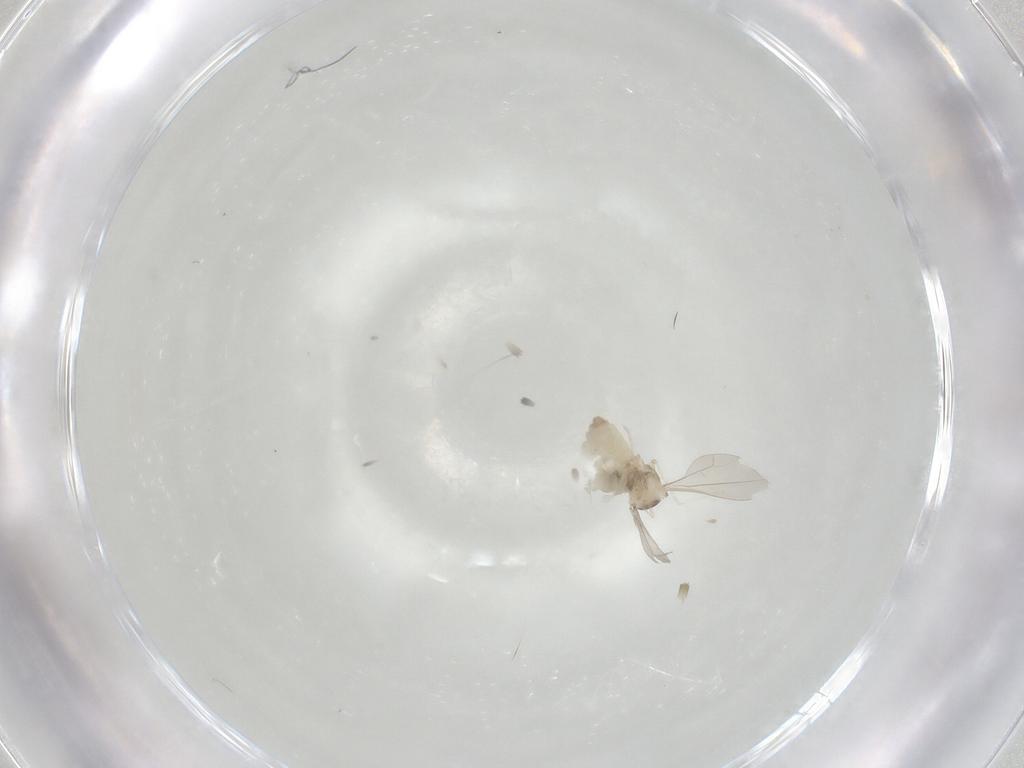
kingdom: Animalia
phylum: Arthropoda
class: Insecta
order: Diptera
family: Cecidomyiidae
